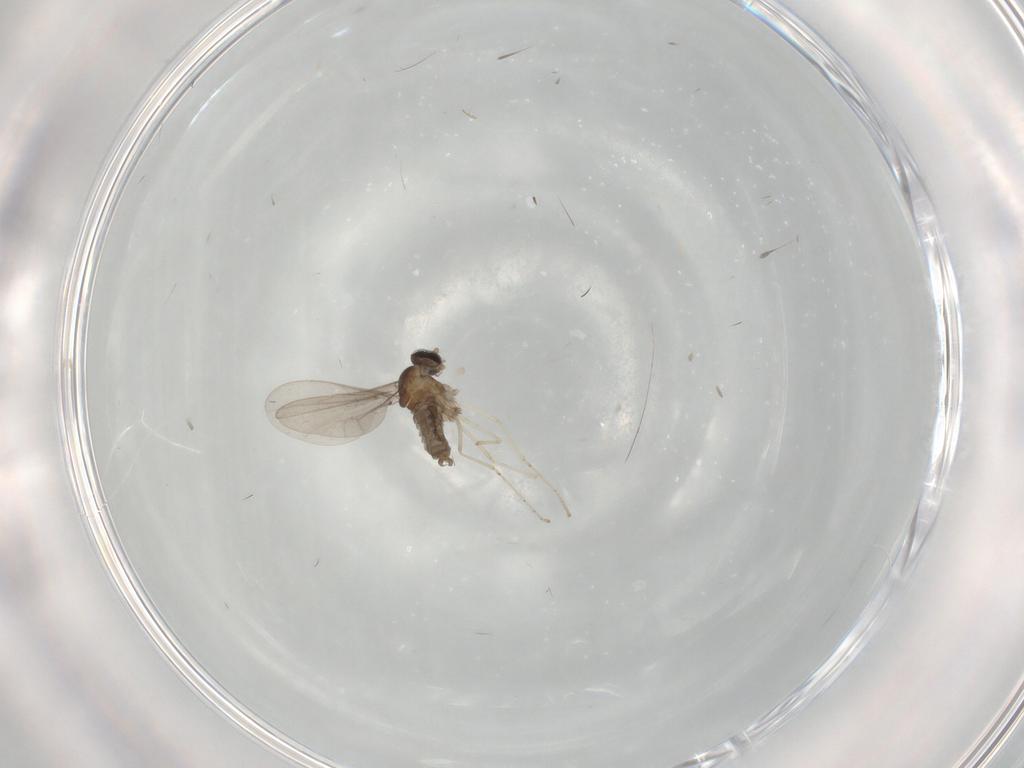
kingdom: Animalia
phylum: Arthropoda
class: Insecta
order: Diptera
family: Cecidomyiidae
